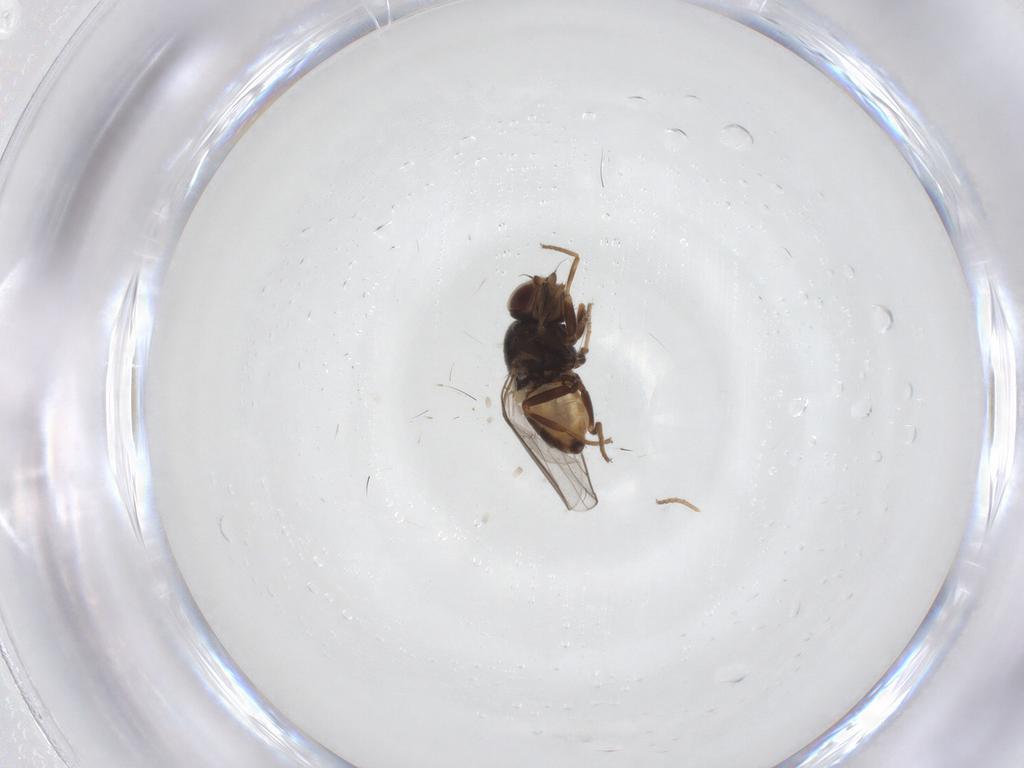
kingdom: Animalia
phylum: Arthropoda
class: Insecta
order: Diptera
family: Chloropidae
